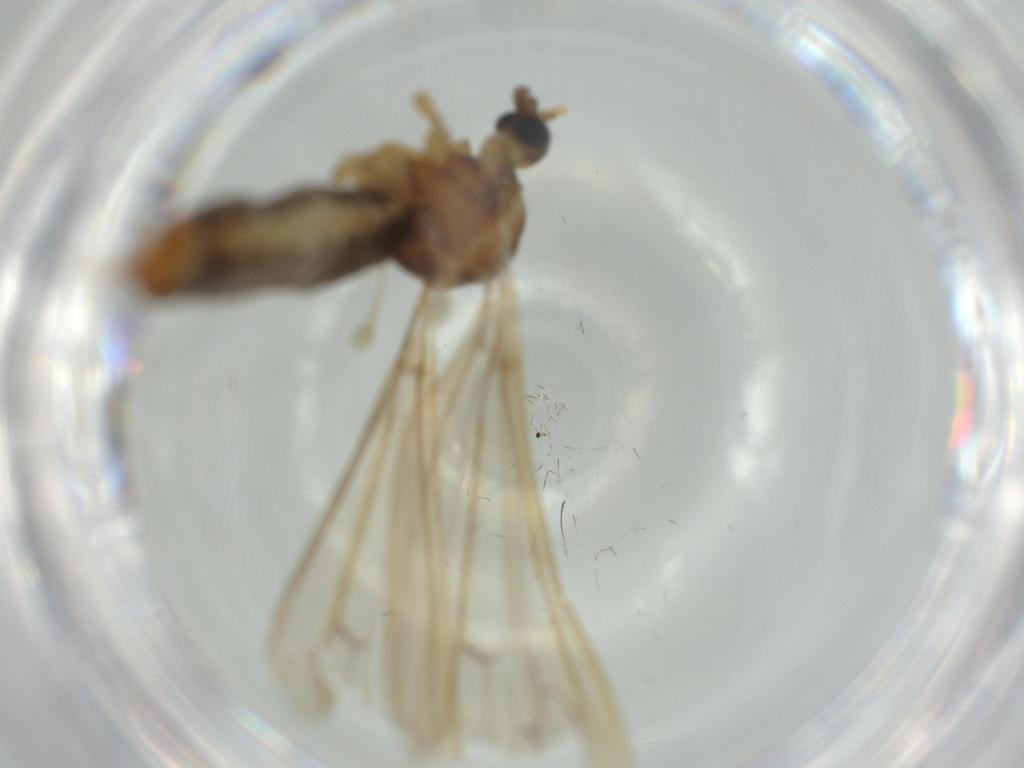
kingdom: Animalia
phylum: Arthropoda
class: Insecta
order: Diptera
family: Limoniidae
